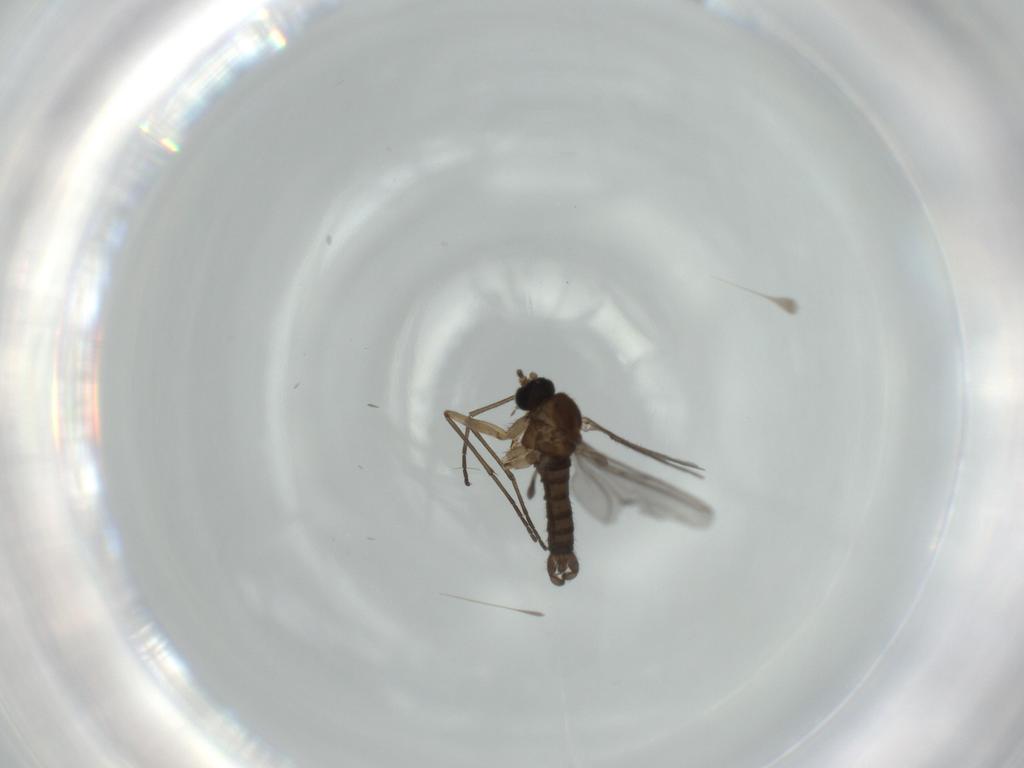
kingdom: Animalia
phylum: Arthropoda
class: Insecta
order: Diptera
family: Sciaridae
